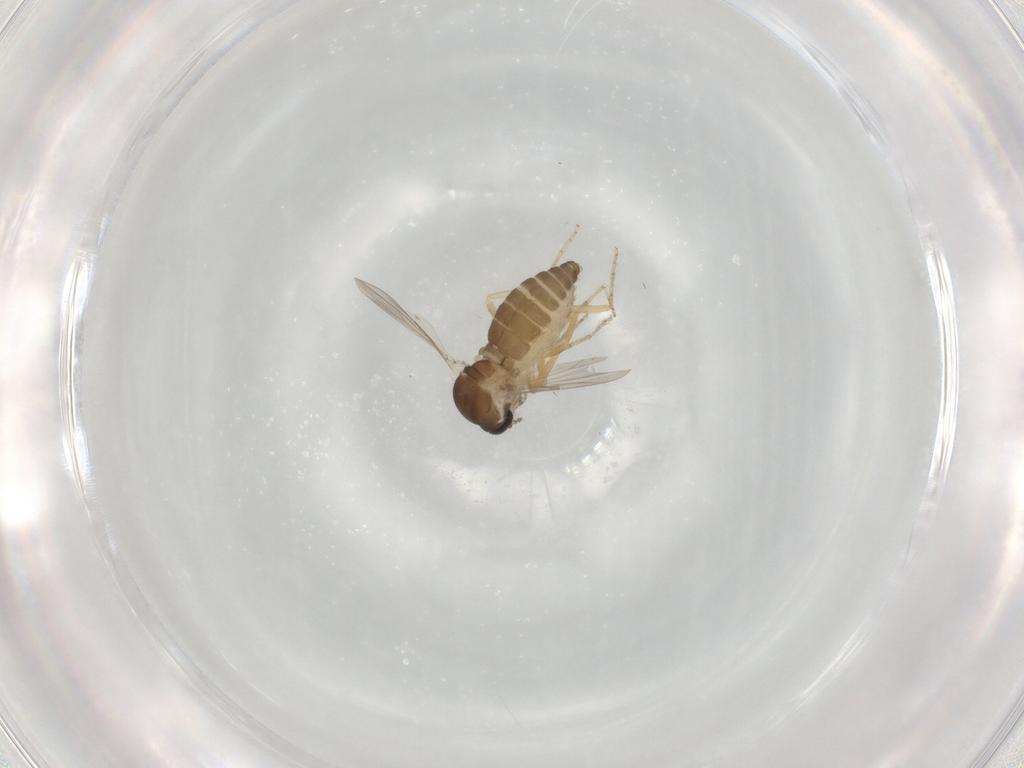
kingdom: Animalia
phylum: Arthropoda
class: Insecta
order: Diptera
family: Ceratopogonidae
